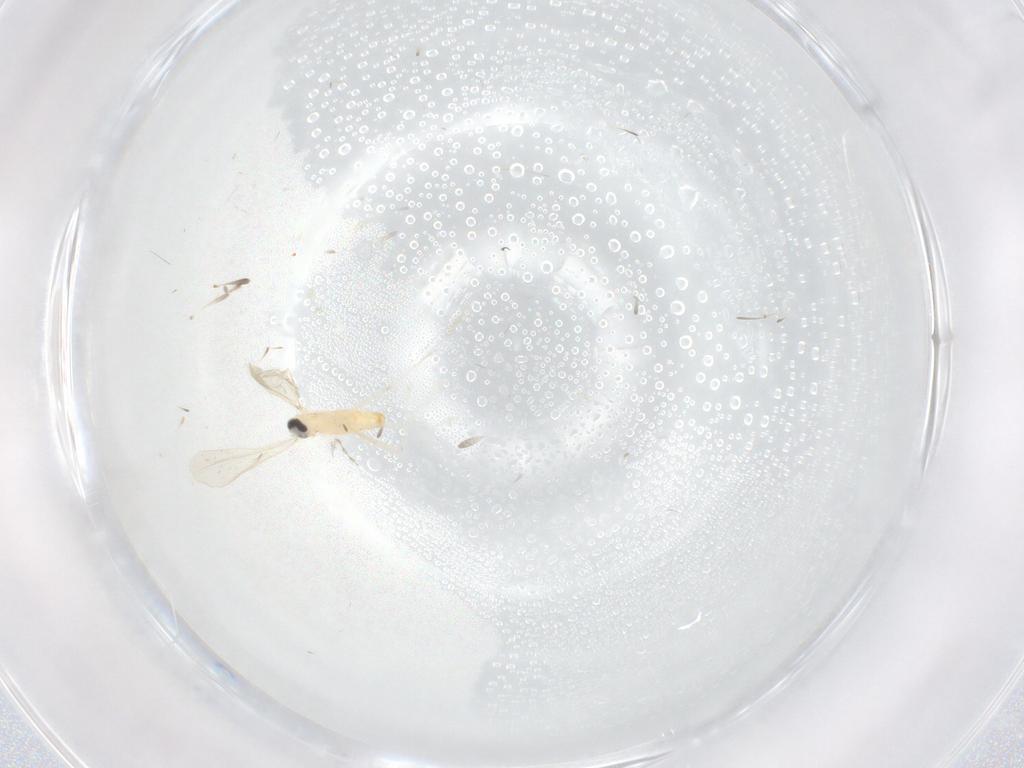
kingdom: Animalia
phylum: Arthropoda
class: Insecta
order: Diptera
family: Cecidomyiidae
